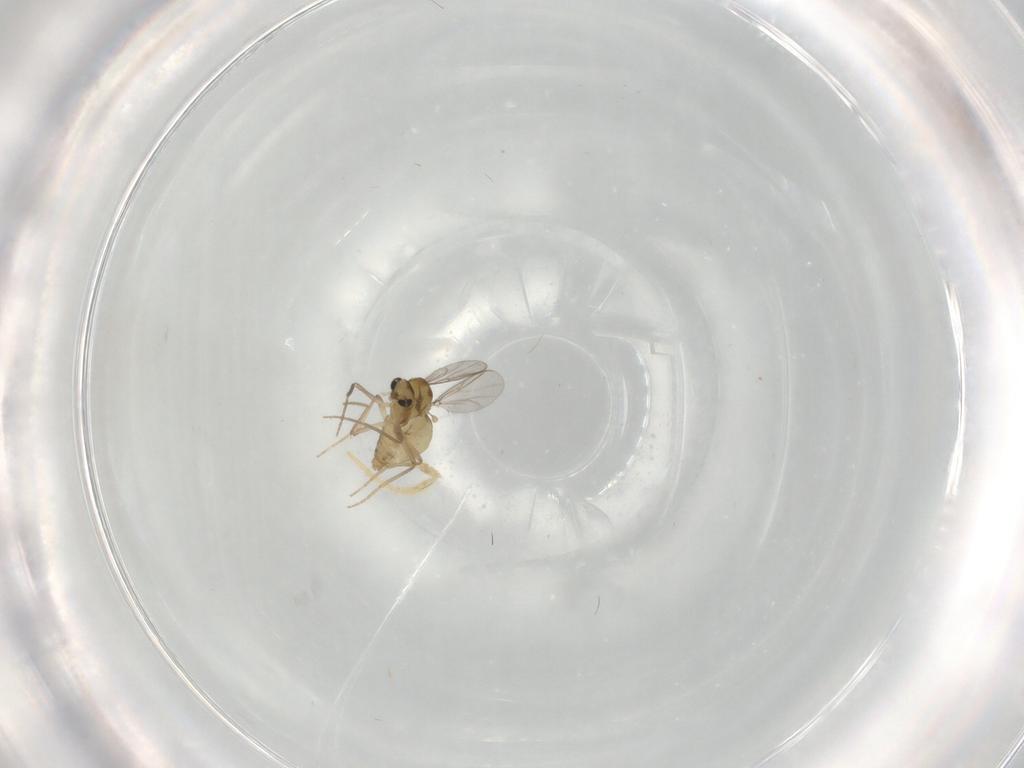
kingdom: Animalia
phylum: Arthropoda
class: Insecta
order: Diptera
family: Chironomidae
